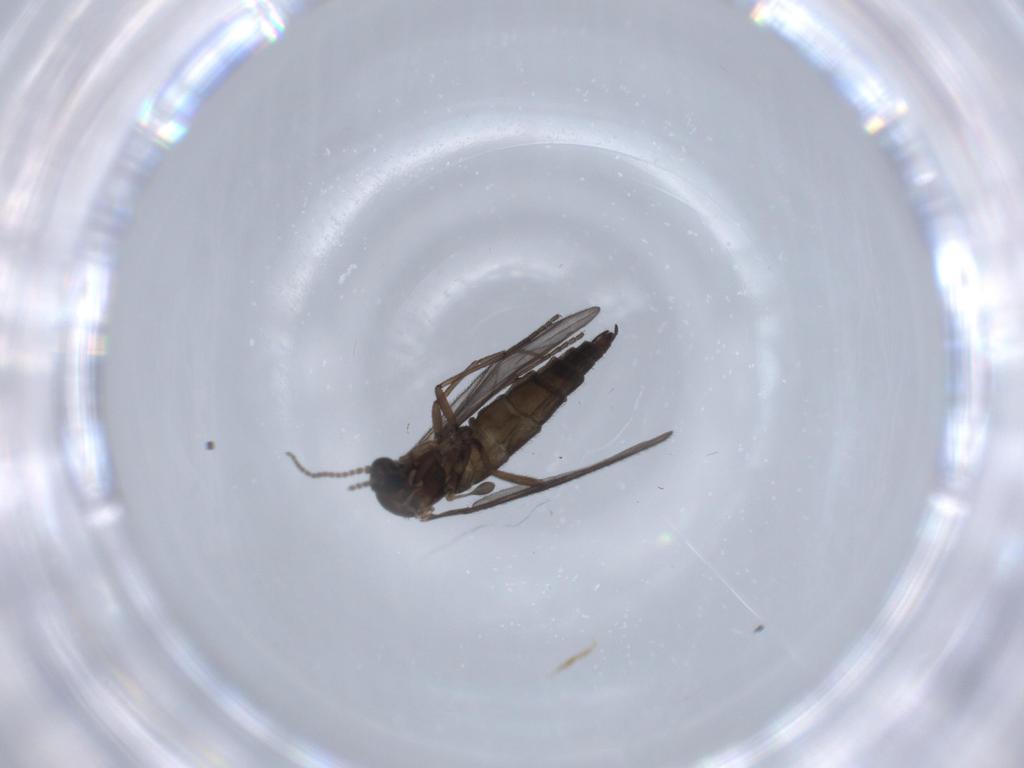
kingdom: Animalia
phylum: Arthropoda
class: Insecta
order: Diptera
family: Sciaridae
